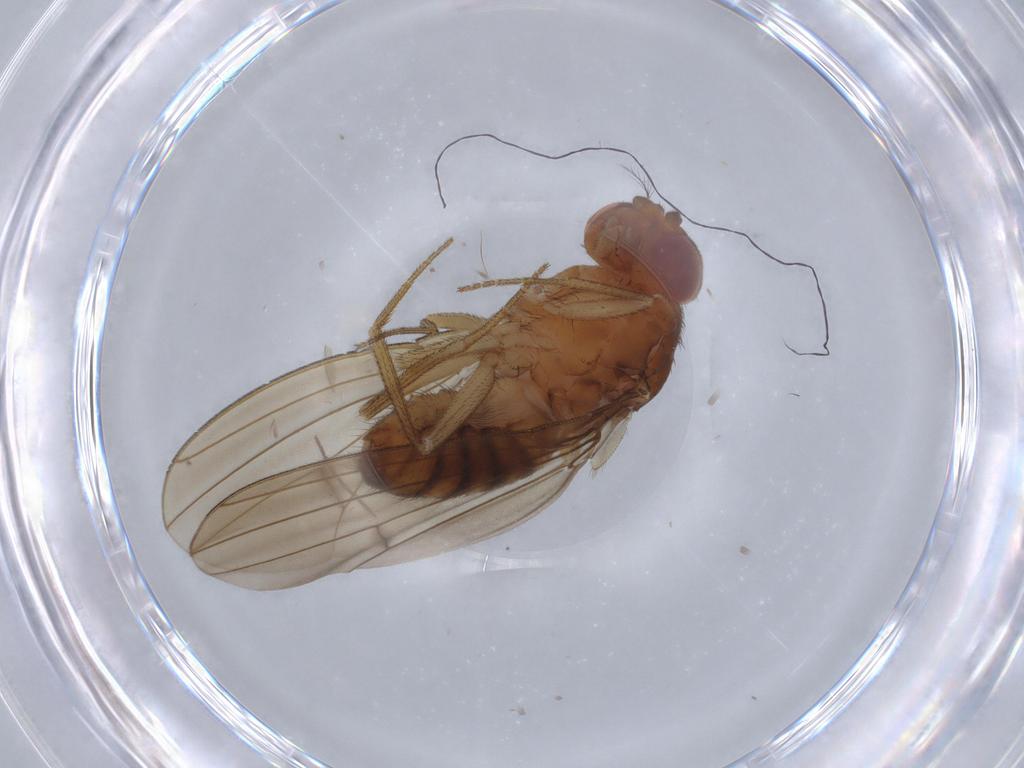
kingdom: Animalia
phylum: Arthropoda
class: Insecta
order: Diptera
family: Drosophilidae
